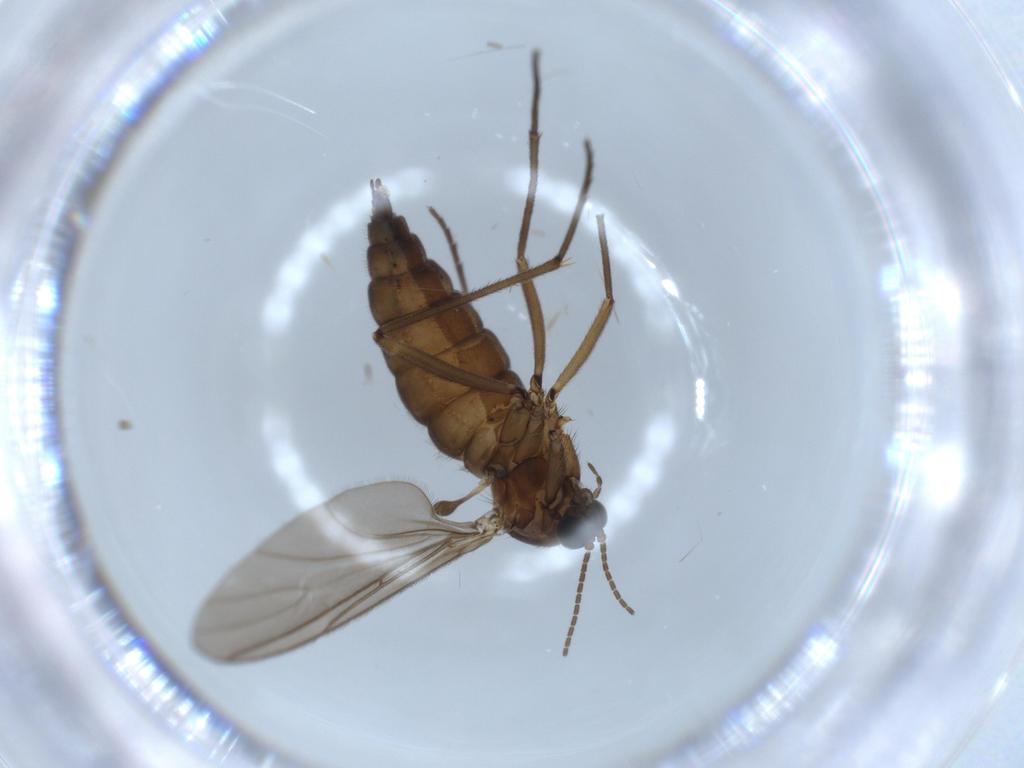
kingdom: Animalia
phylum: Arthropoda
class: Insecta
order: Diptera
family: Sciaridae
